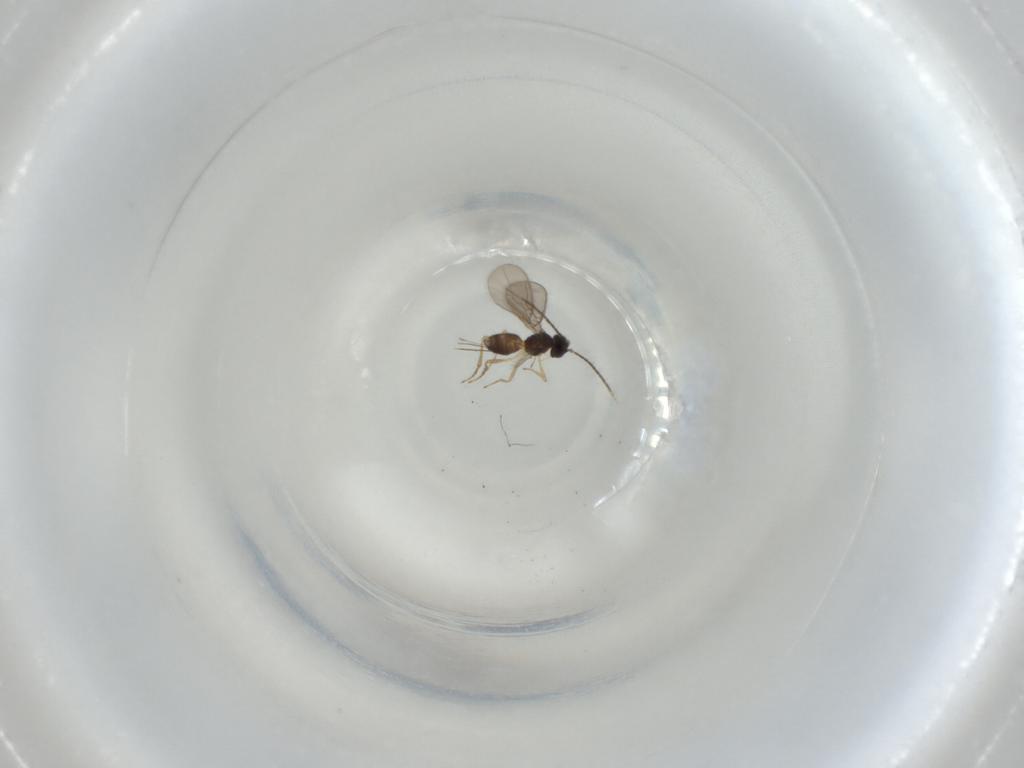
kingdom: Animalia
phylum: Arthropoda
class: Insecta
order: Hymenoptera
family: Braconidae
